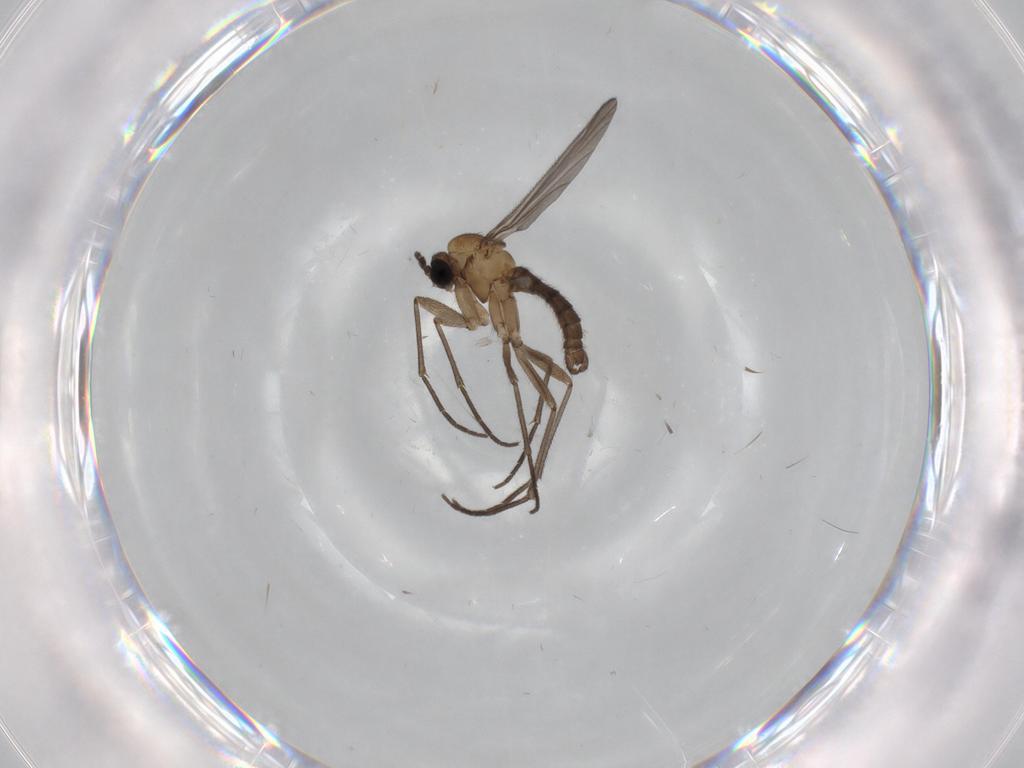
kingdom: Animalia
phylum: Arthropoda
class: Insecta
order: Diptera
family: Sciaridae
